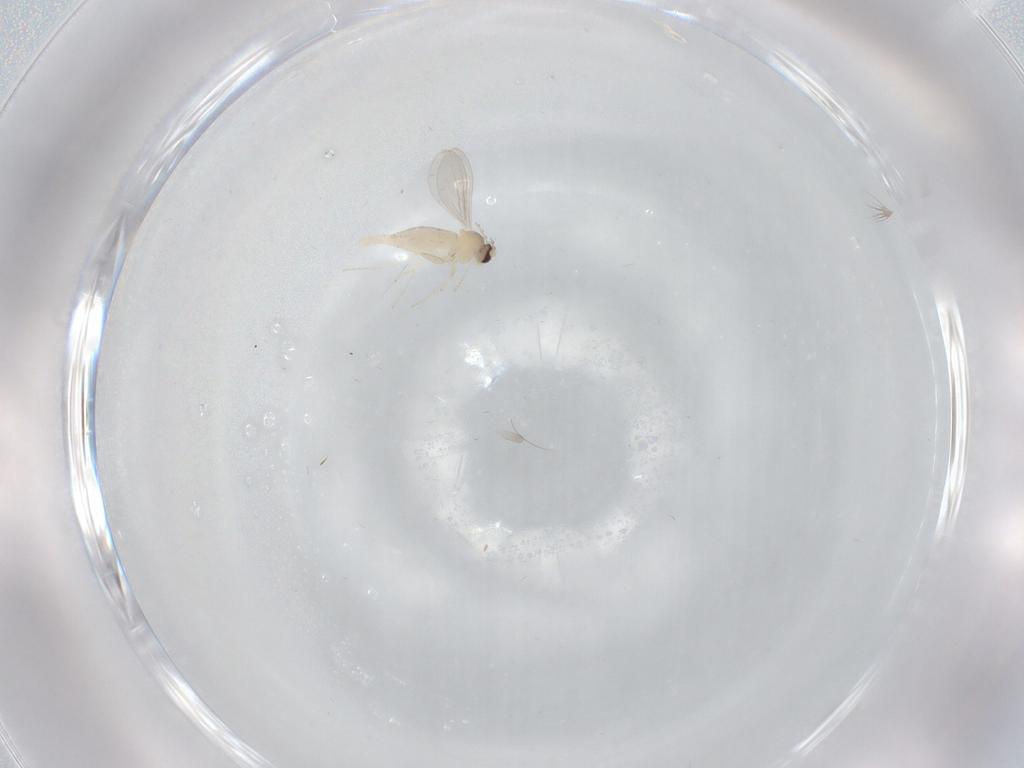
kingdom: Animalia
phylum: Arthropoda
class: Insecta
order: Diptera
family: Cecidomyiidae
